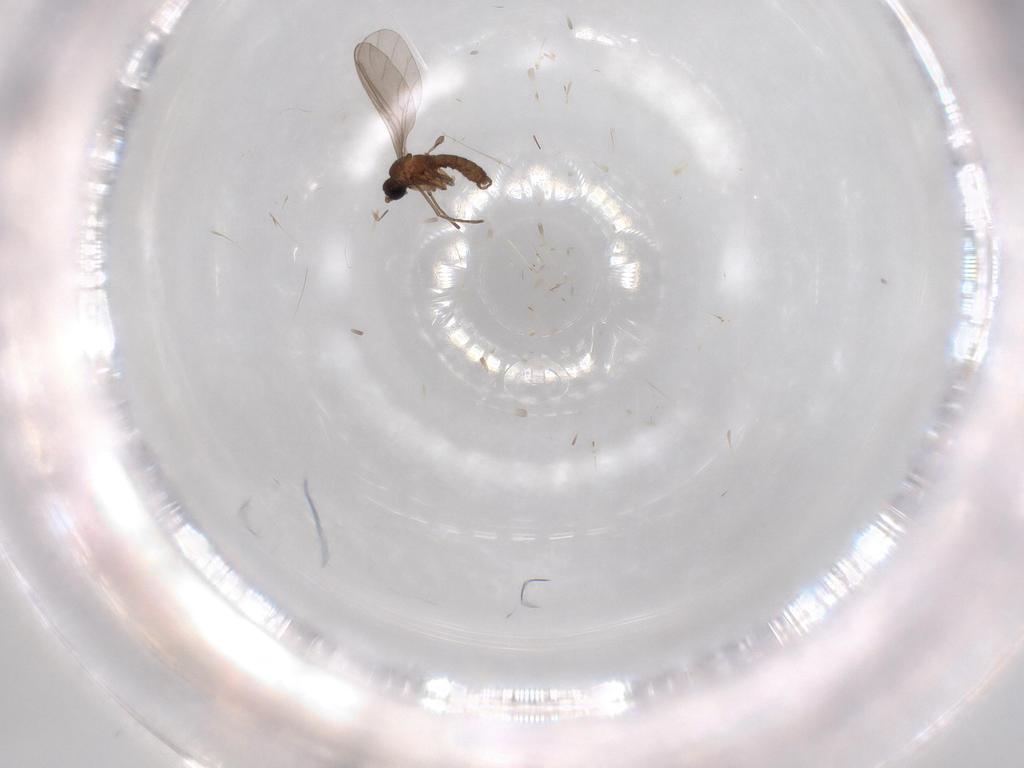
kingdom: Animalia
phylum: Arthropoda
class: Insecta
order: Diptera
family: Sciaridae
